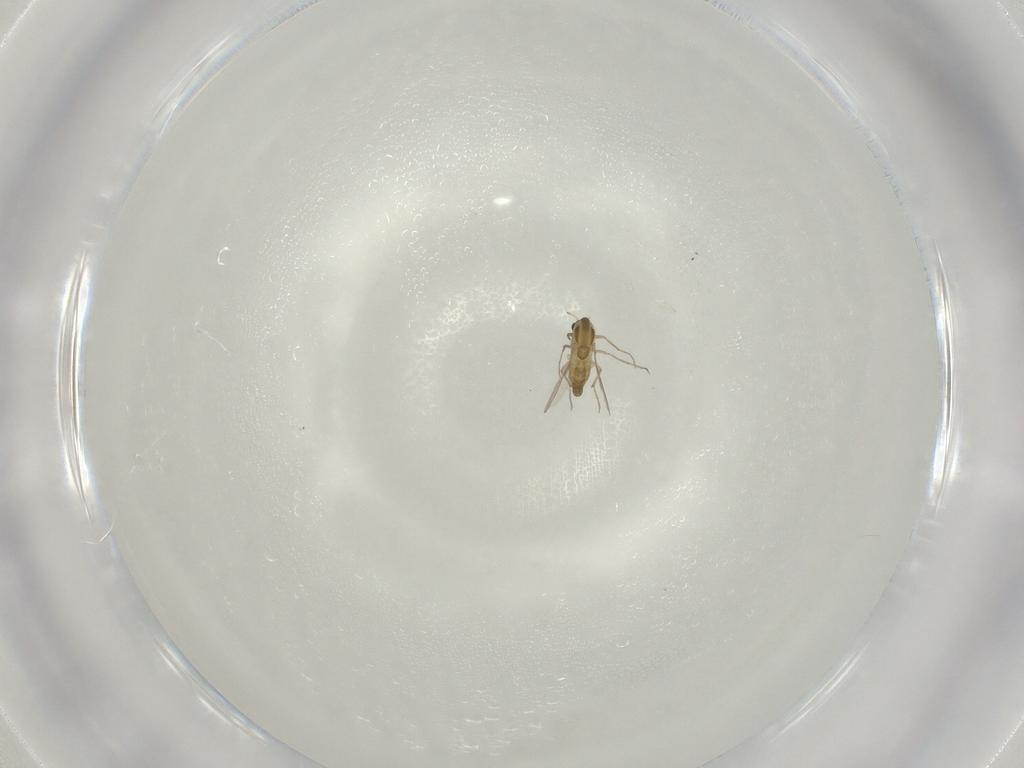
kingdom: Animalia
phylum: Arthropoda
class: Insecta
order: Diptera
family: Chironomidae
